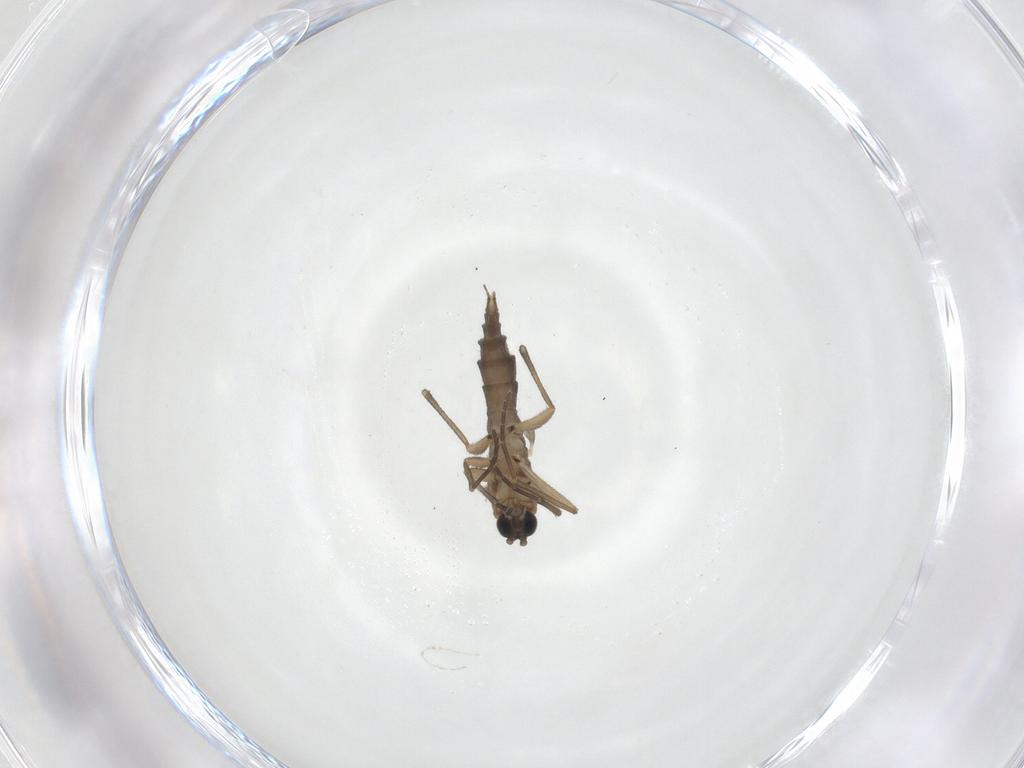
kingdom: Animalia
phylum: Arthropoda
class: Insecta
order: Diptera
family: Sciaridae
